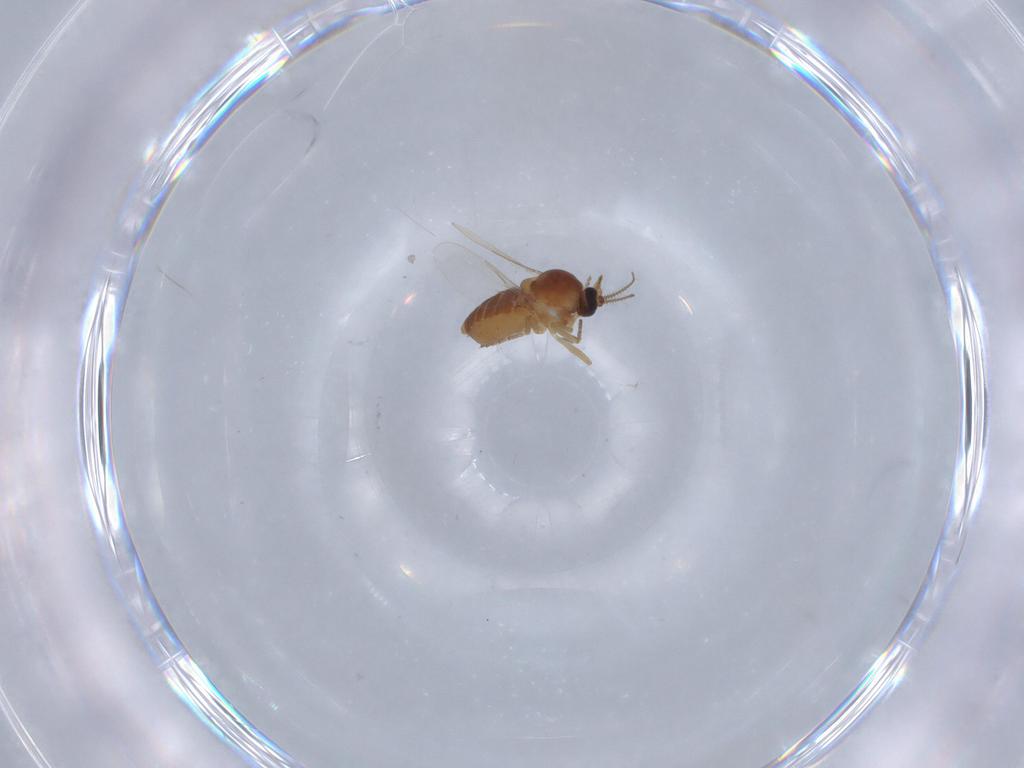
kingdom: Animalia
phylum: Arthropoda
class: Insecta
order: Diptera
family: Ceratopogonidae
